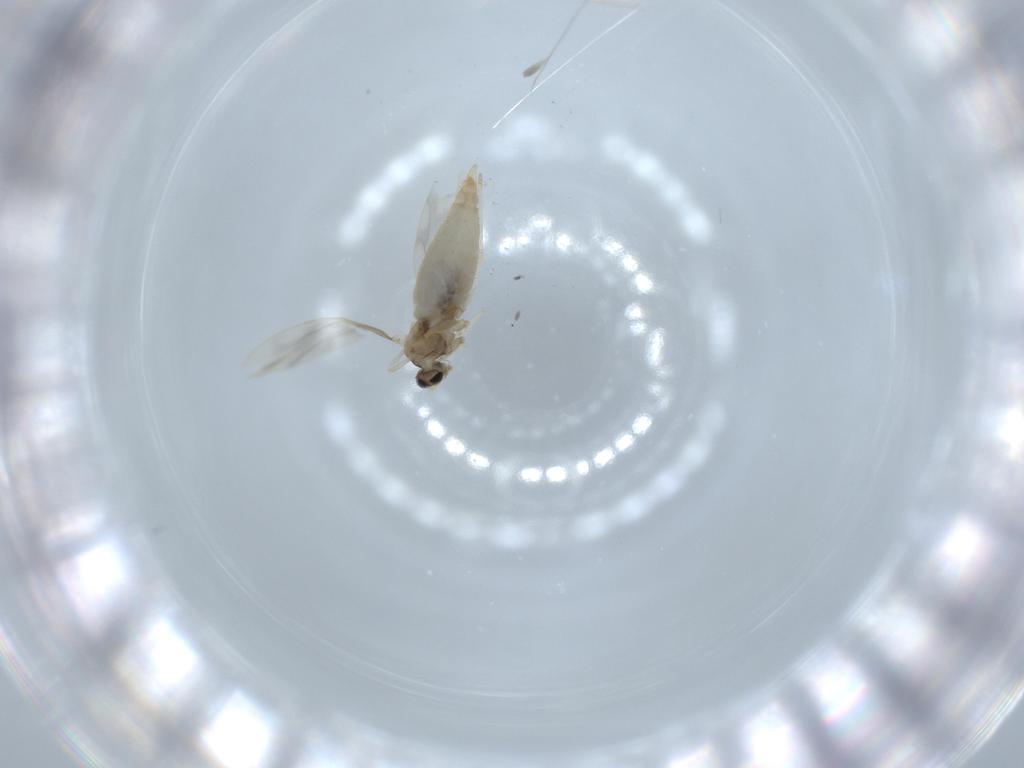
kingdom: Animalia
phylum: Arthropoda
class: Insecta
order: Diptera
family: Cecidomyiidae
